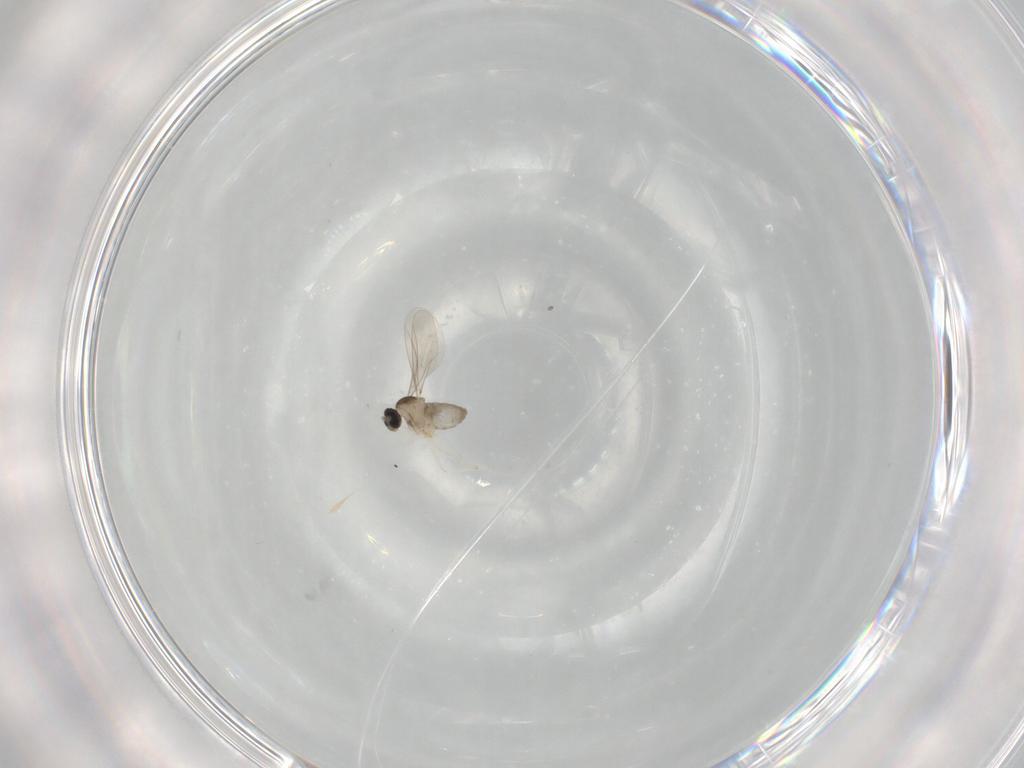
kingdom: Animalia
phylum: Arthropoda
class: Insecta
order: Diptera
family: Cecidomyiidae
